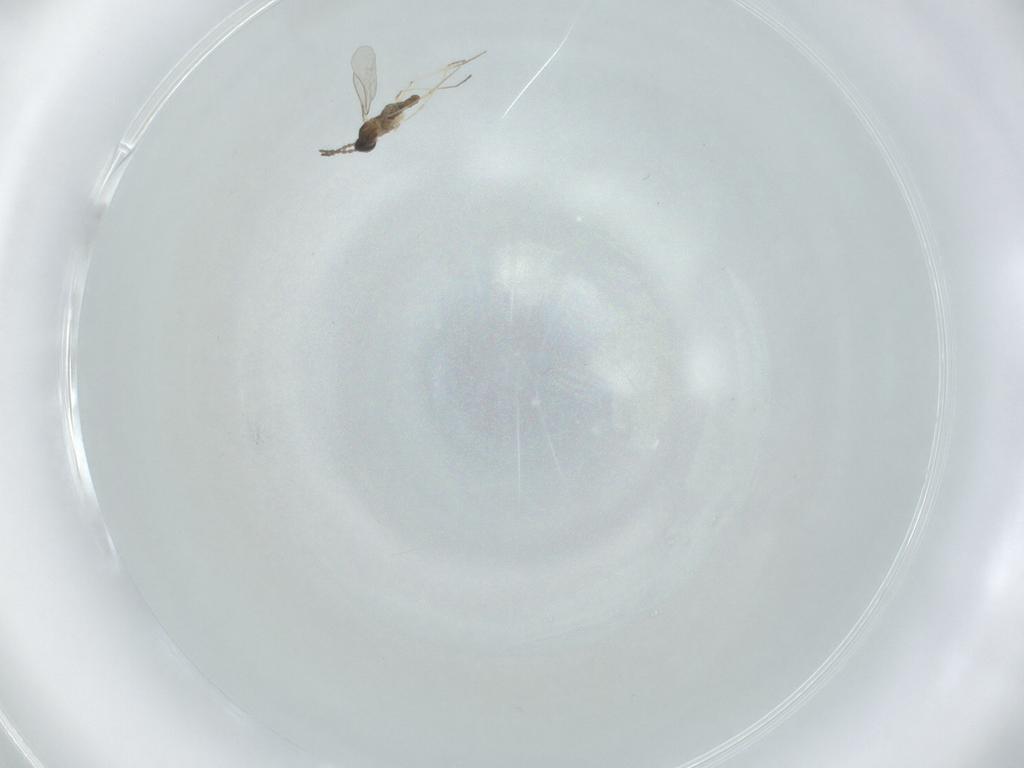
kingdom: Animalia
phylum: Arthropoda
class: Insecta
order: Diptera
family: Cecidomyiidae
